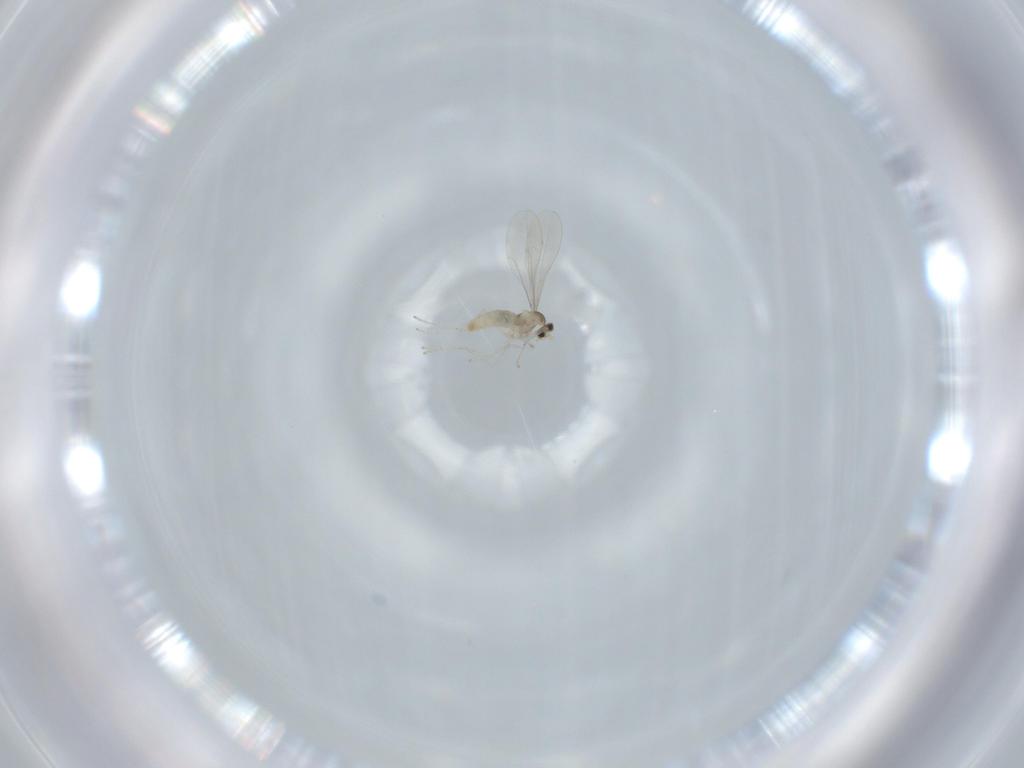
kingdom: Animalia
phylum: Arthropoda
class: Insecta
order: Diptera
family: Cecidomyiidae
